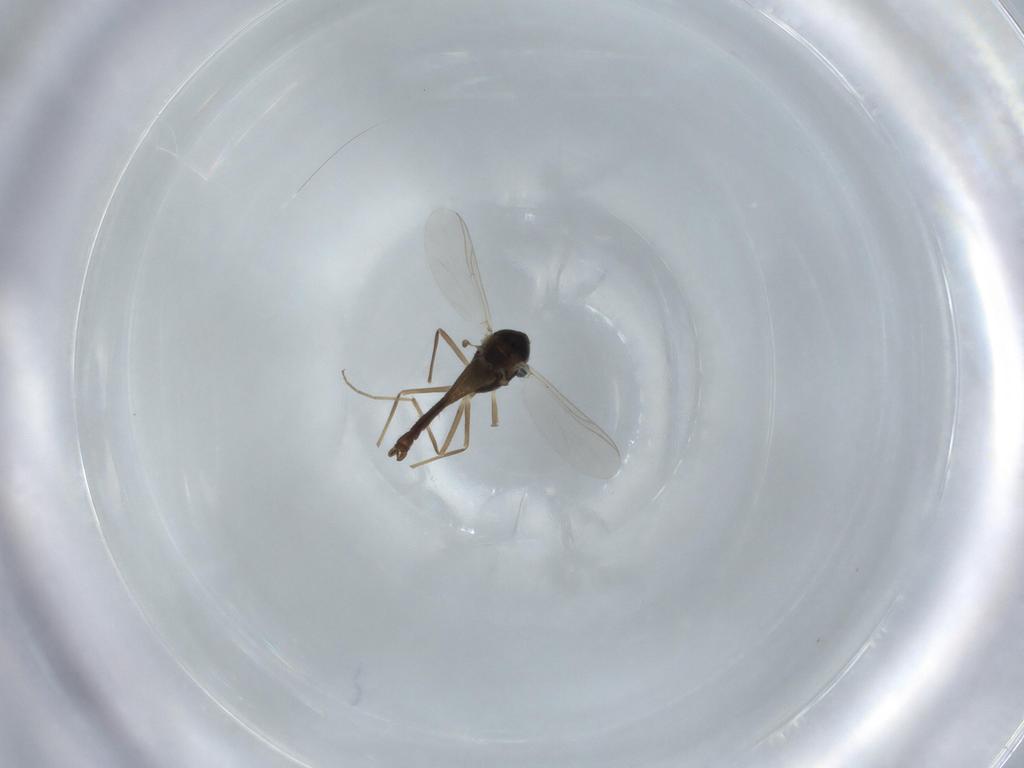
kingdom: Animalia
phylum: Arthropoda
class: Insecta
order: Diptera
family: Chironomidae
